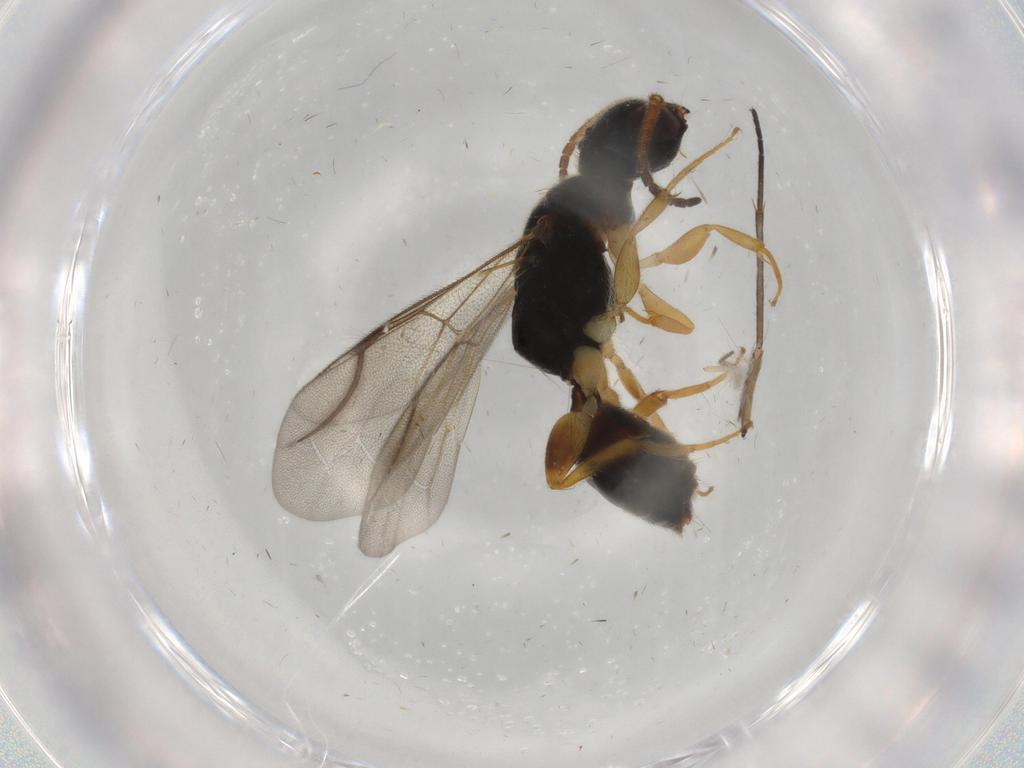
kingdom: Animalia
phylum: Arthropoda
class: Insecta
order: Hymenoptera
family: Bethylidae
